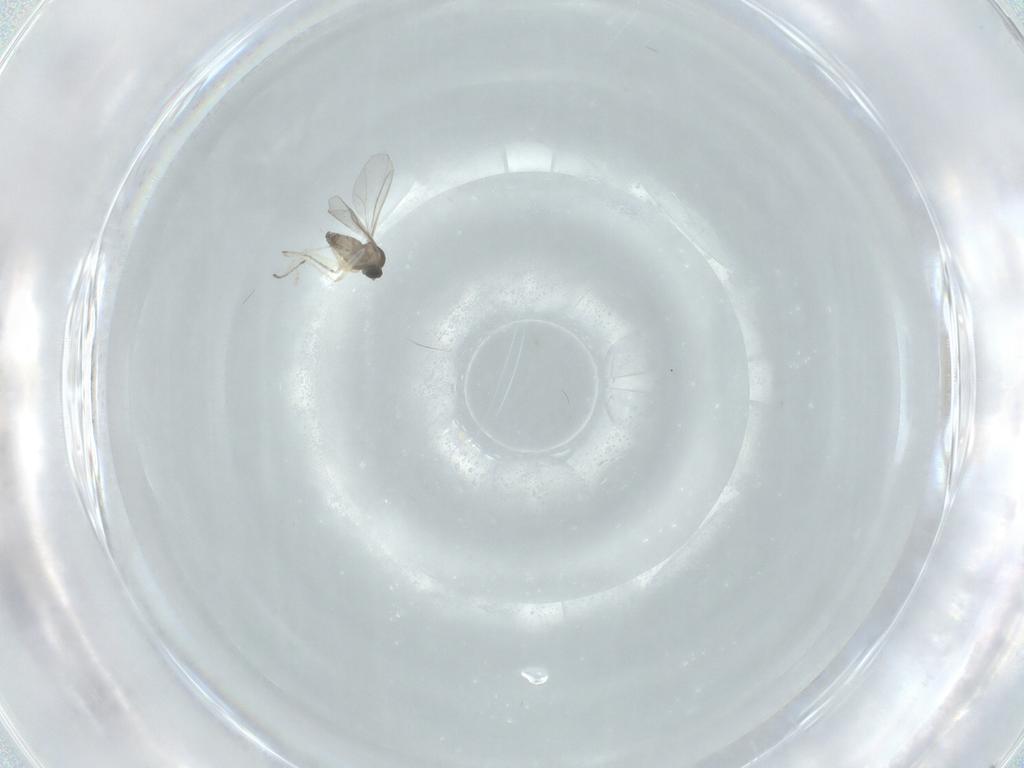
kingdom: Animalia
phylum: Arthropoda
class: Insecta
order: Diptera
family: Cecidomyiidae
